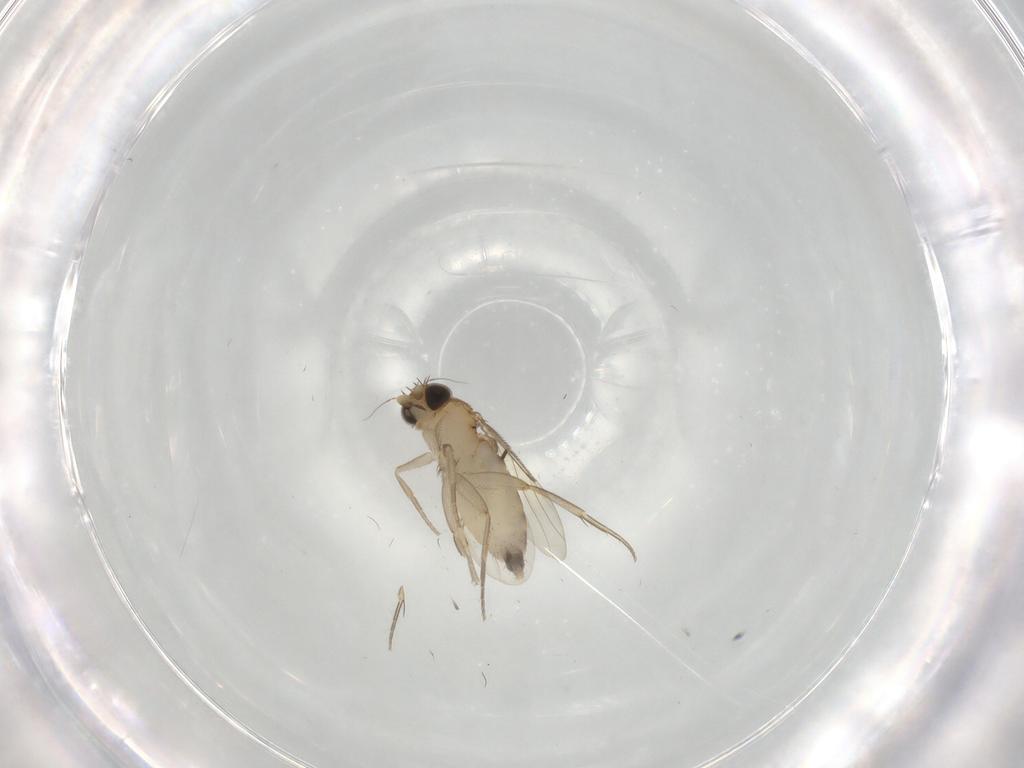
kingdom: Animalia
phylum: Arthropoda
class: Insecta
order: Diptera
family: Phoridae
